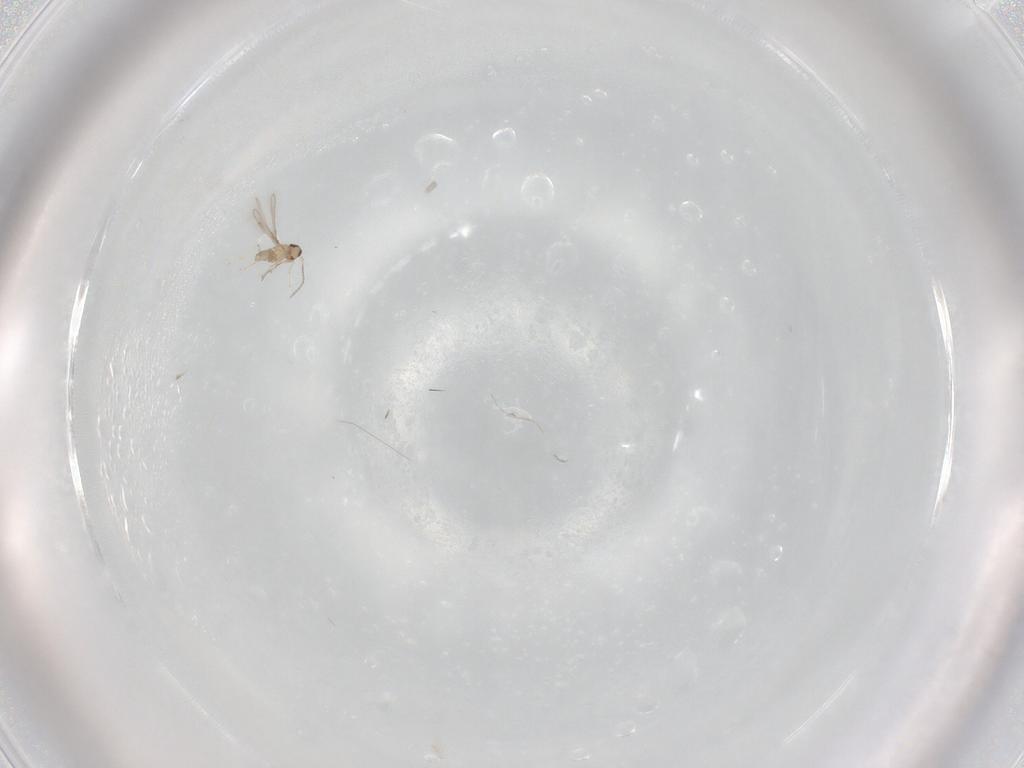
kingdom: Animalia
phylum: Arthropoda
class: Insecta
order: Hymenoptera
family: Mymaridae
